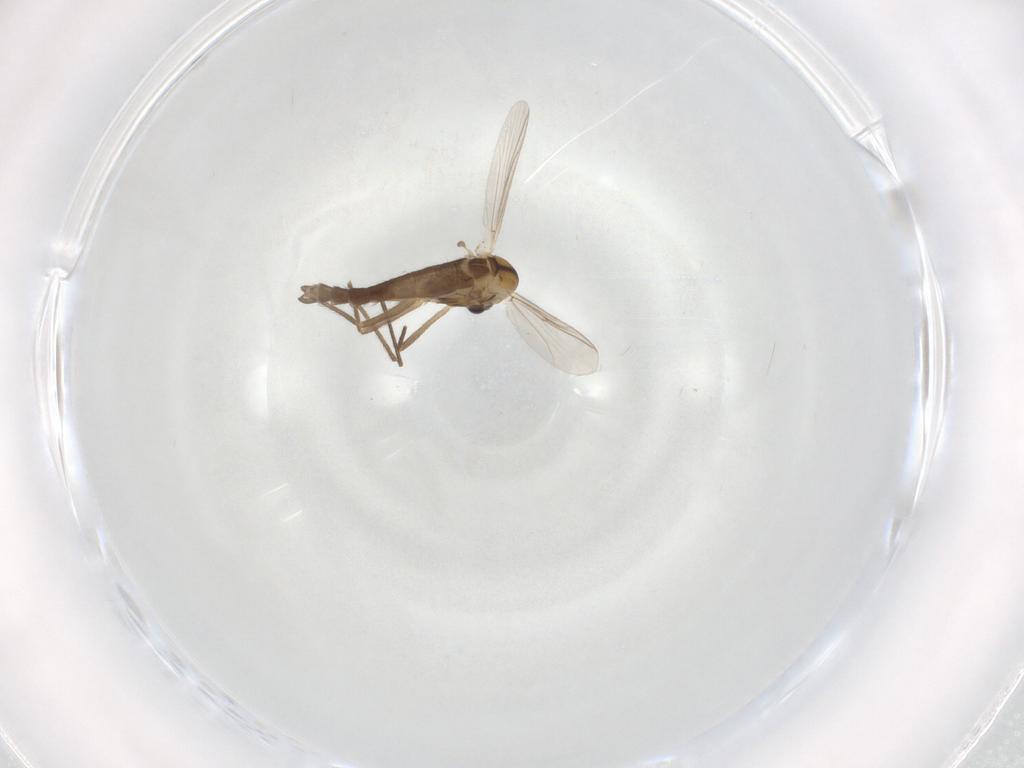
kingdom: Animalia
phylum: Arthropoda
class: Insecta
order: Diptera
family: Chironomidae
